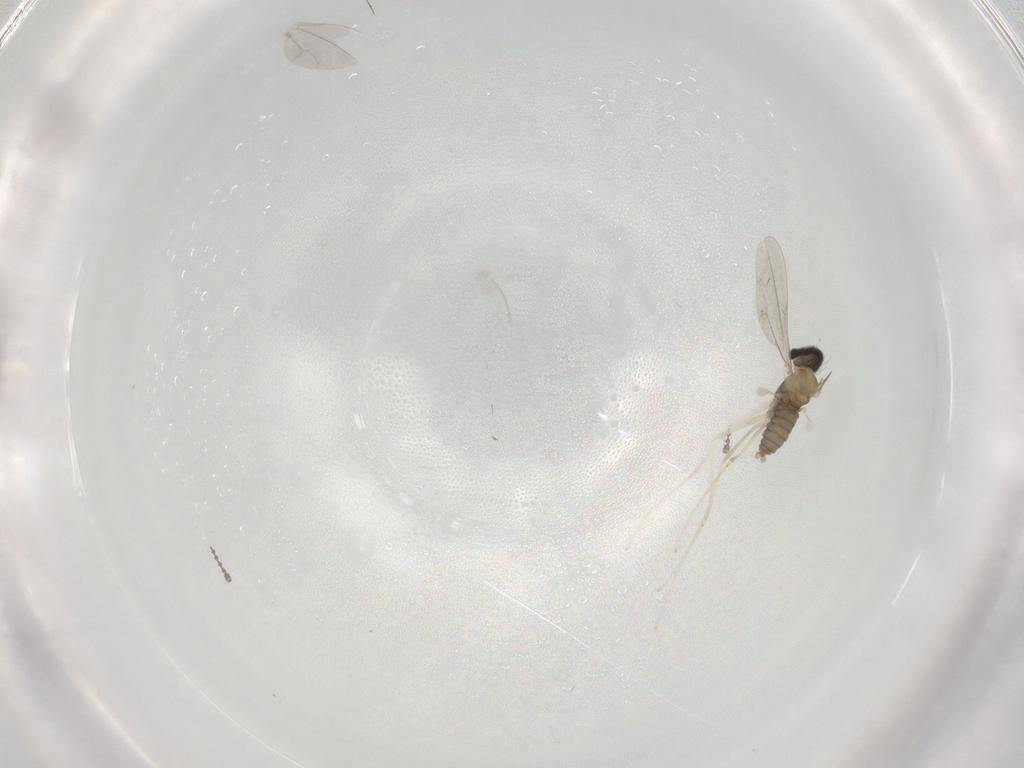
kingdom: Animalia
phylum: Arthropoda
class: Insecta
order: Diptera
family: Cecidomyiidae
